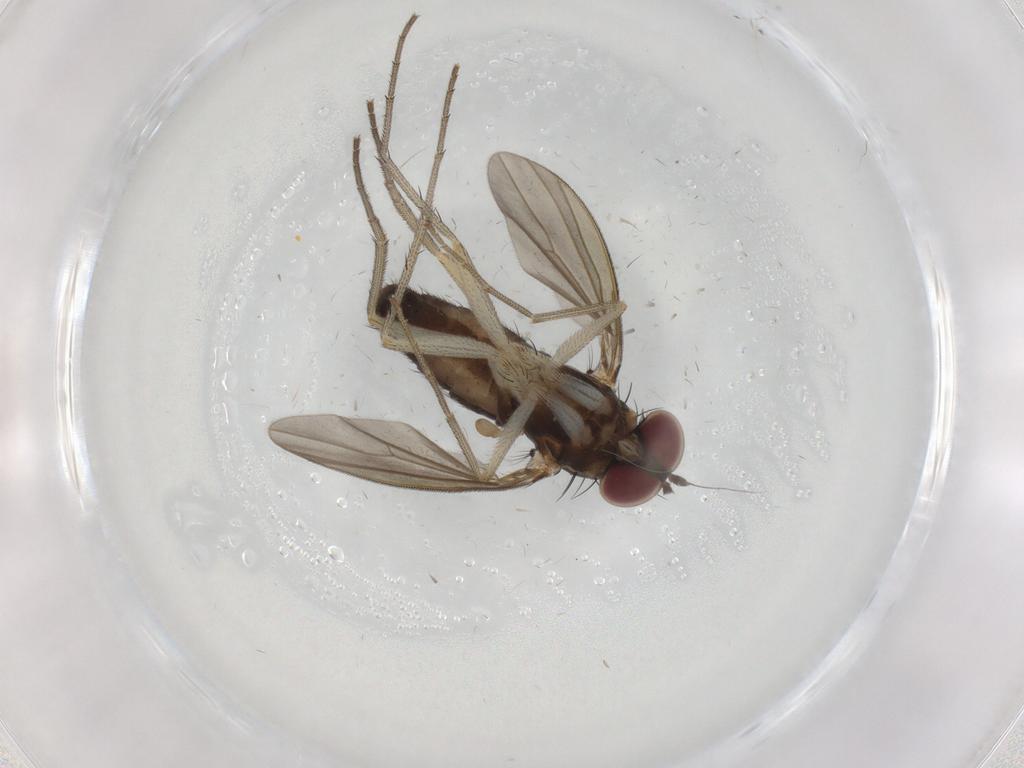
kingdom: Animalia
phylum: Arthropoda
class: Insecta
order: Diptera
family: Dolichopodidae
